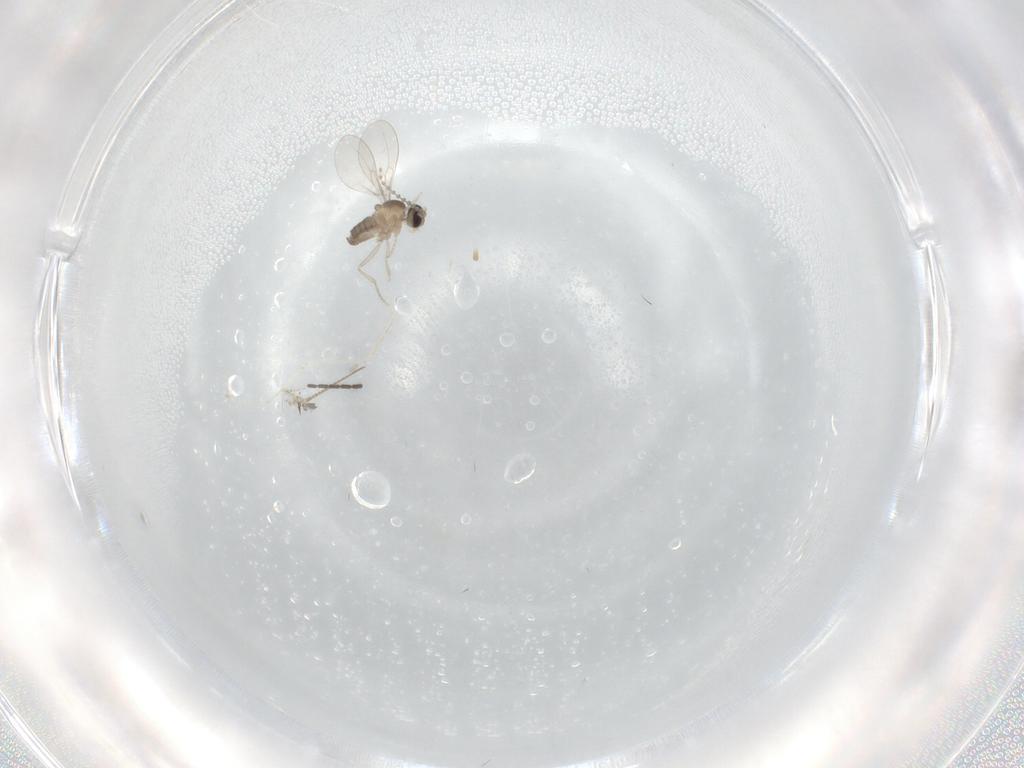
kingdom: Animalia
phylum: Arthropoda
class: Insecta
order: Diptera
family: Cecidomyiidae
